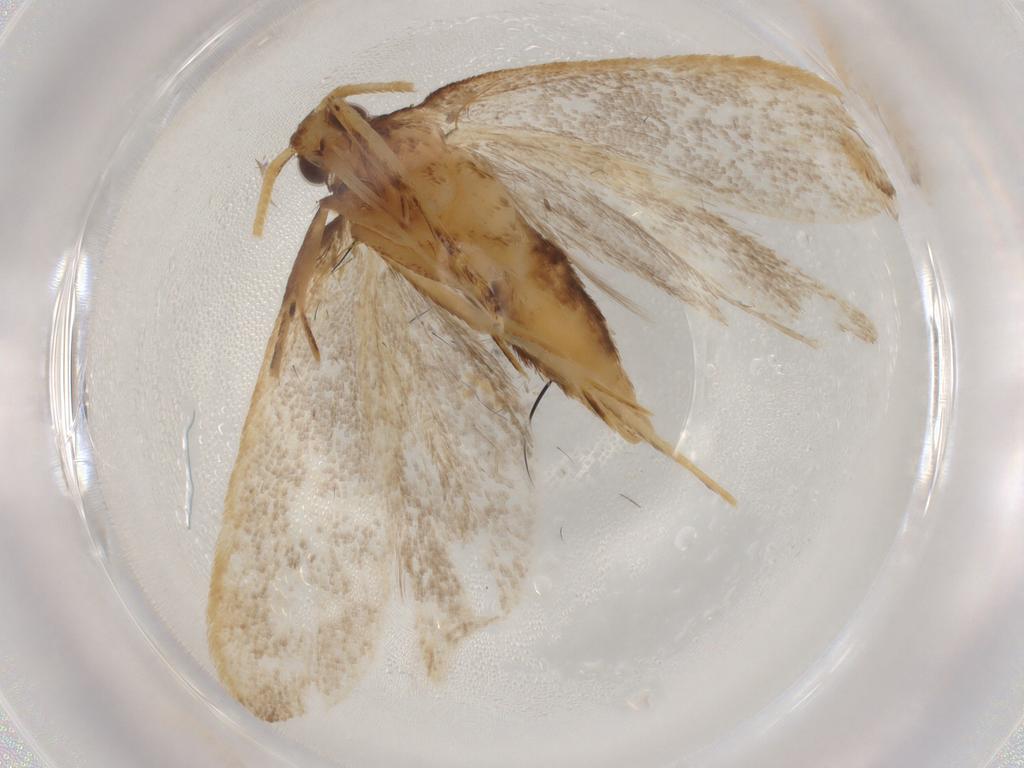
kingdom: Animalia
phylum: Arthropoda
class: Insecta
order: Lepidoptera
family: Lecithoceridae
